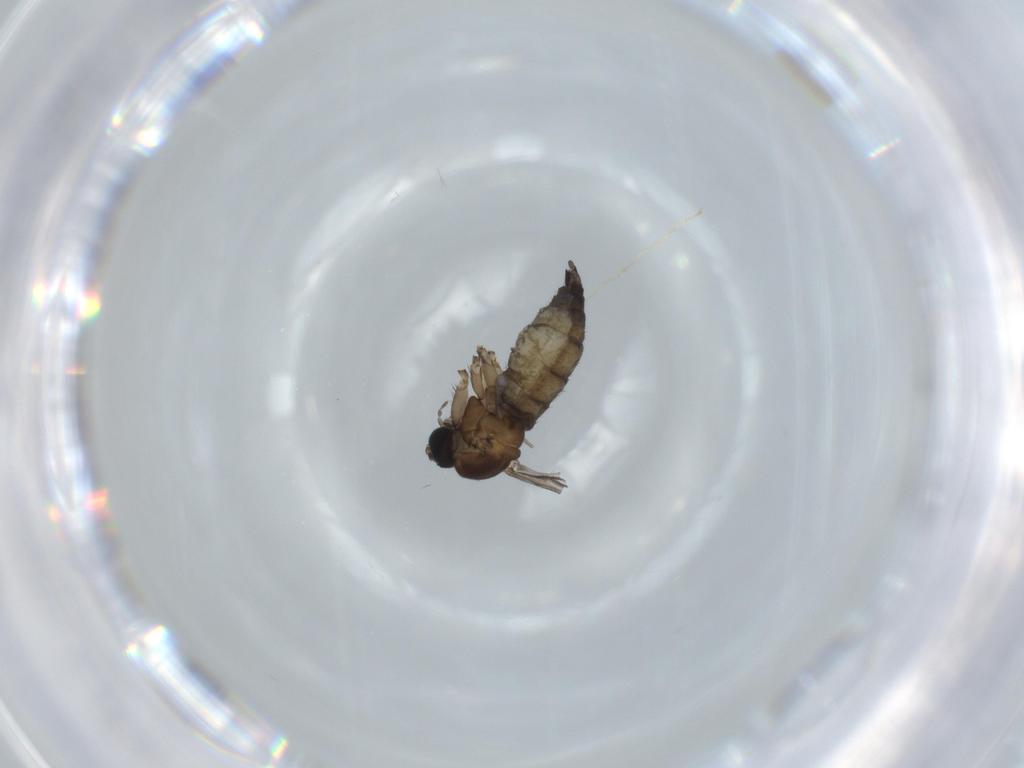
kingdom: Animalia
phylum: Arthropoda
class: Insecta
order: Diptera
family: Sciaridae
